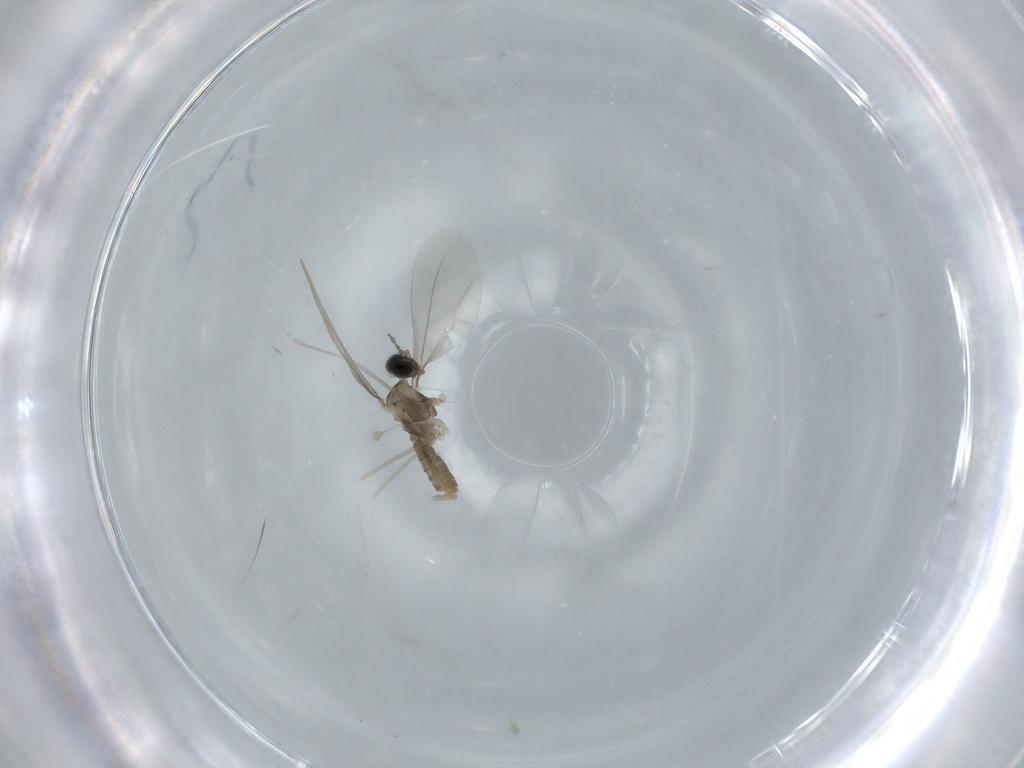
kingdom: Animalia
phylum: Arthropoda
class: Insecta
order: Diptera
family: Cecidomyiidae
